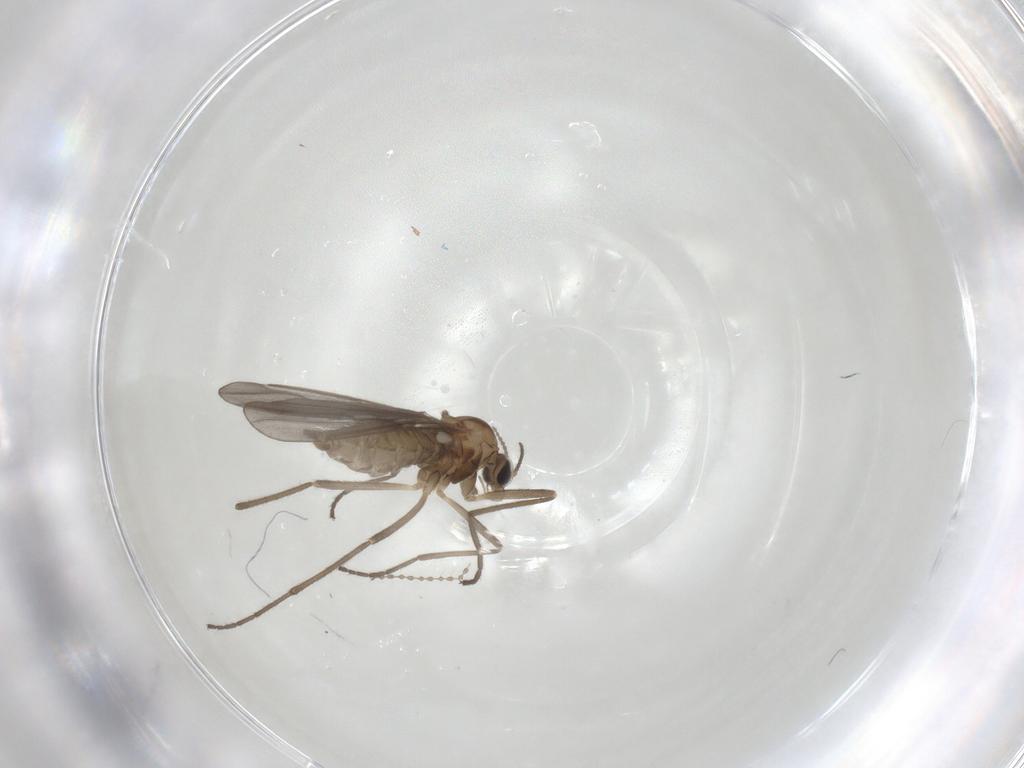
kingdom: Animalia
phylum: Arthropoda
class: Insecta
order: Diptera
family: Cecidomyiidae
